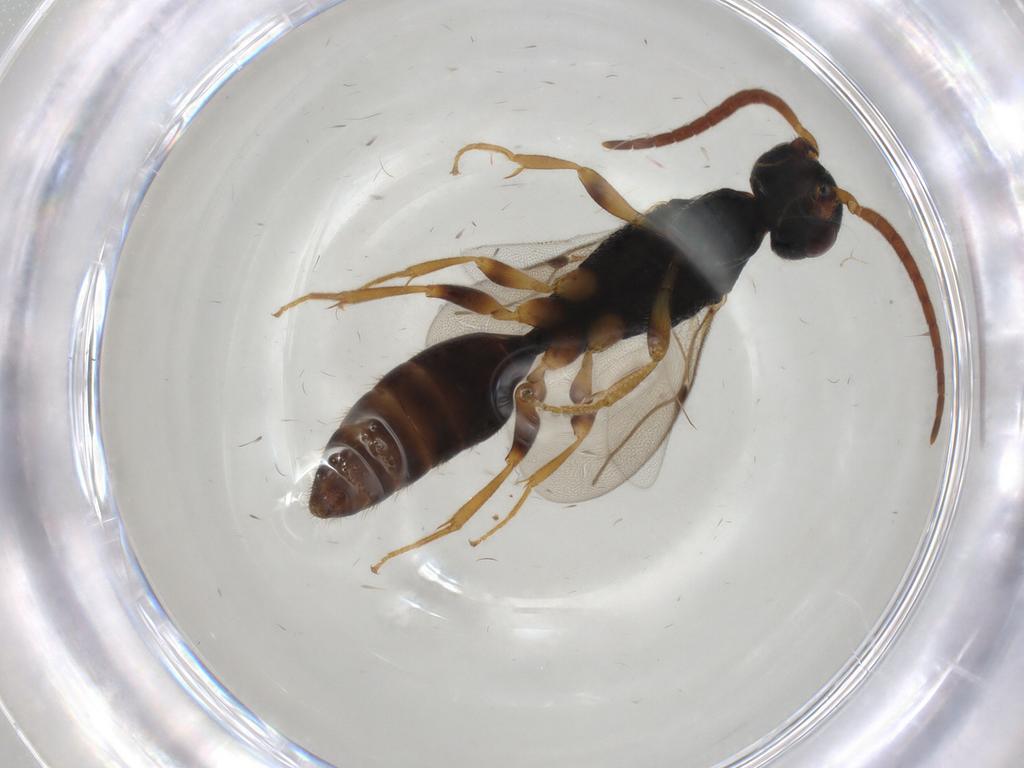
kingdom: Animalia
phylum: Arthropoda
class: Insecta
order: Hymenoptera
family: Bethylidae
